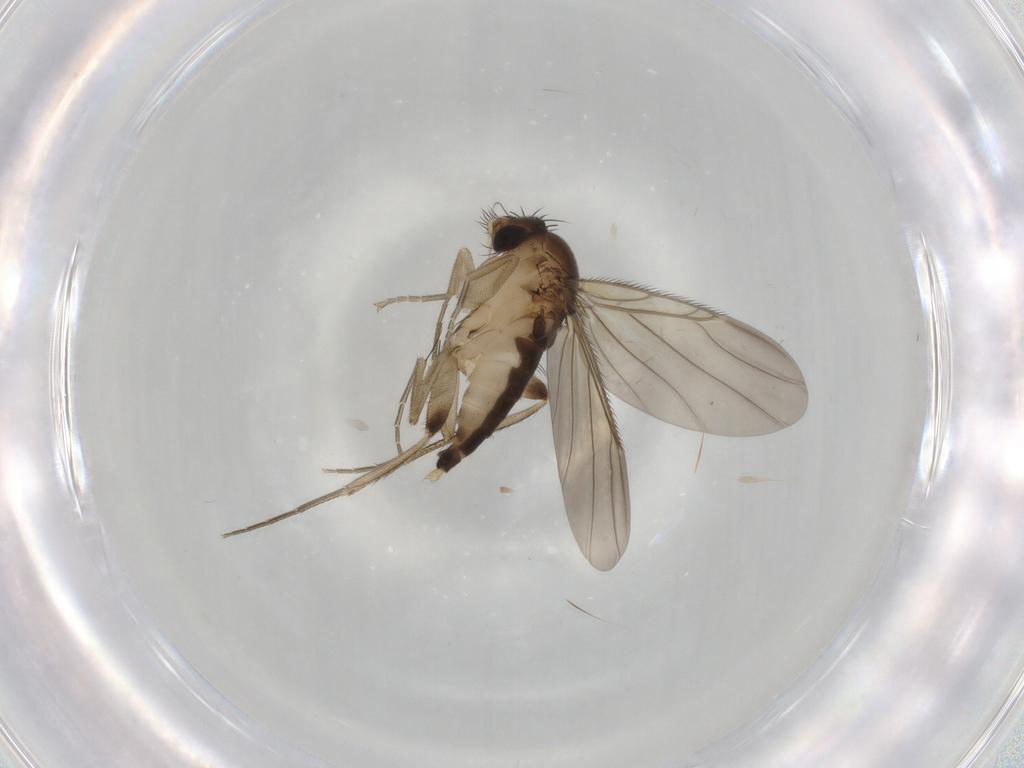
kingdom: Animalia
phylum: Arthropoda
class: Insecta
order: Diptera
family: Phoridae
